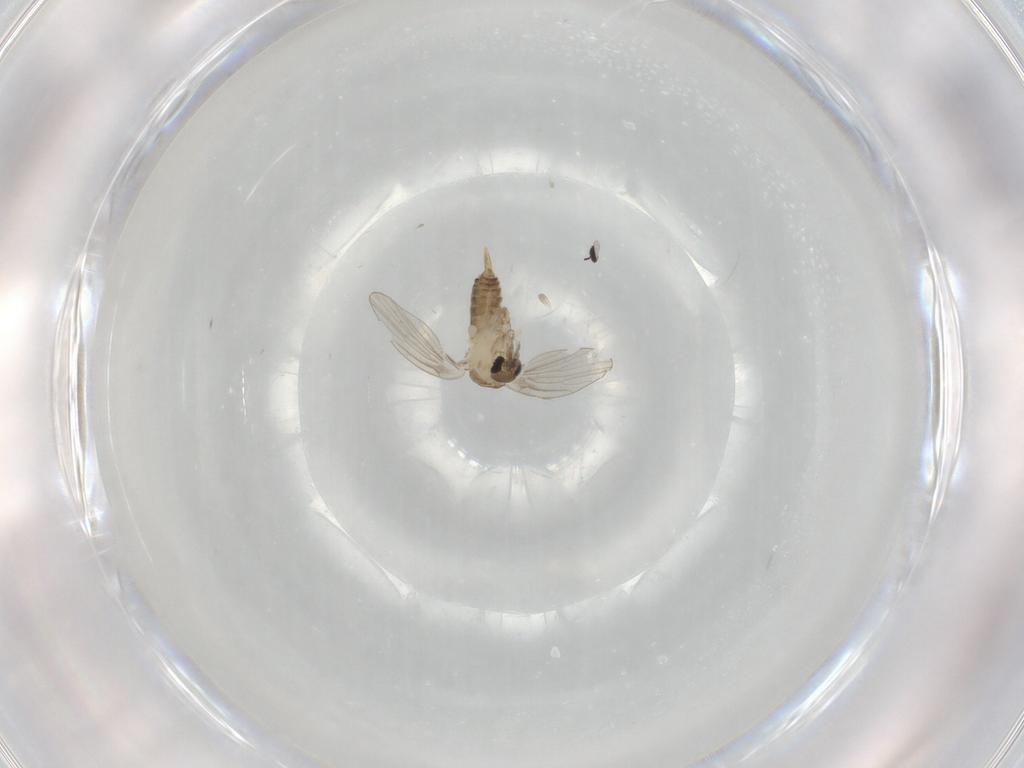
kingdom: Animalia
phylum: Arthropoda
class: Insecta
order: Diptera
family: Psychodidae
